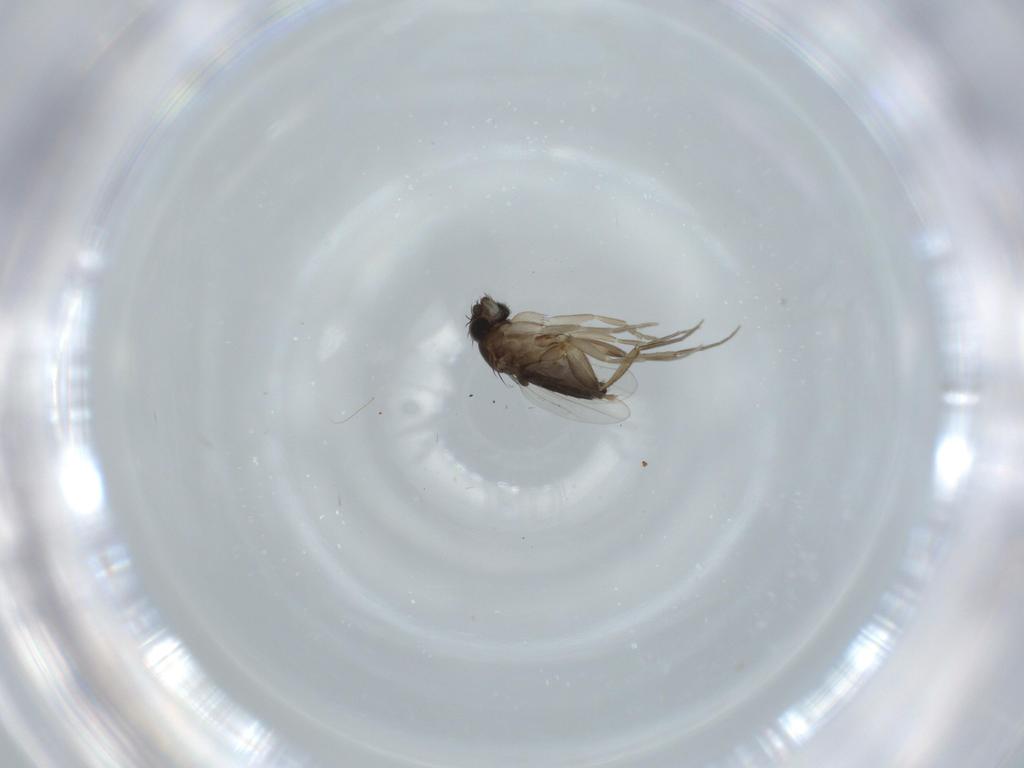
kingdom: Animalia
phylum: Arthropoda
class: Insecta
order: Diptera
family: Phoridae
